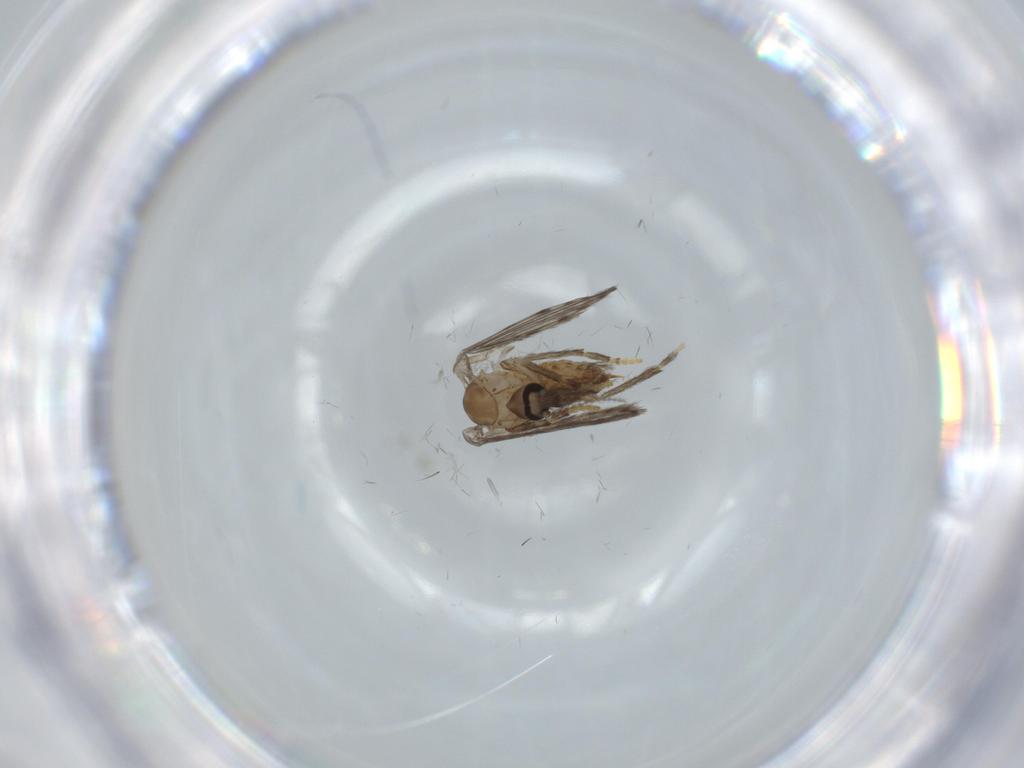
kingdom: Animalia
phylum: Arthropoda
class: Insecta
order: Diptera
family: Psychodidae
